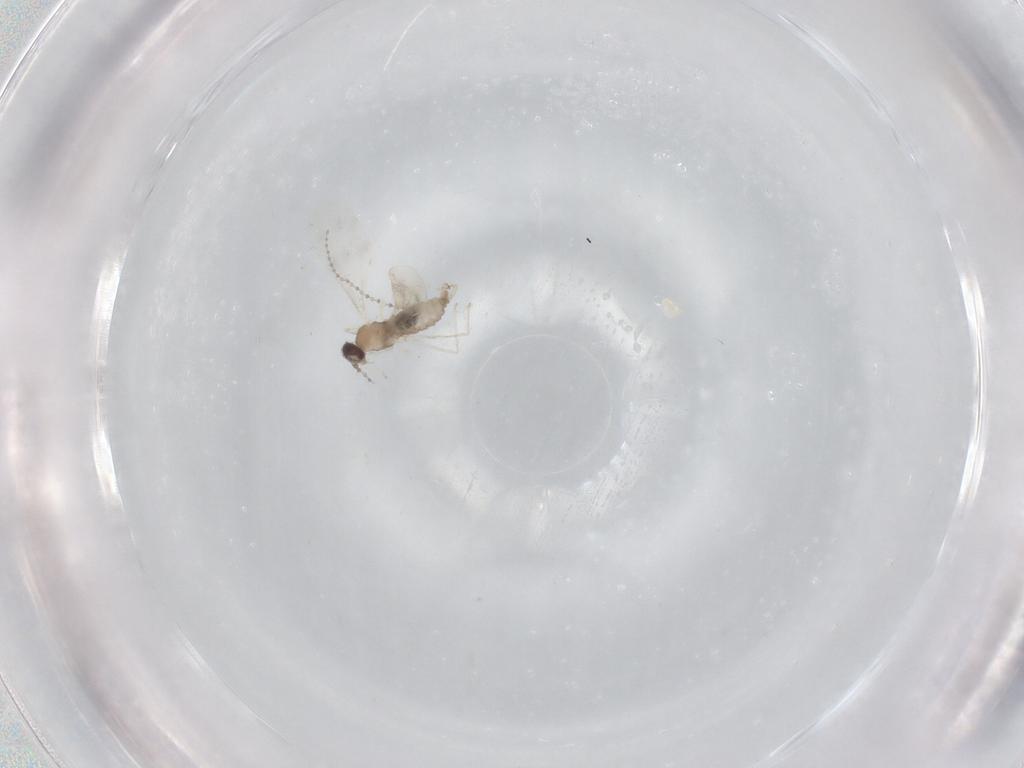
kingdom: Animalia
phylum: Arthropoda
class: Insecta
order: Diptera
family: Cecidomyiidae
